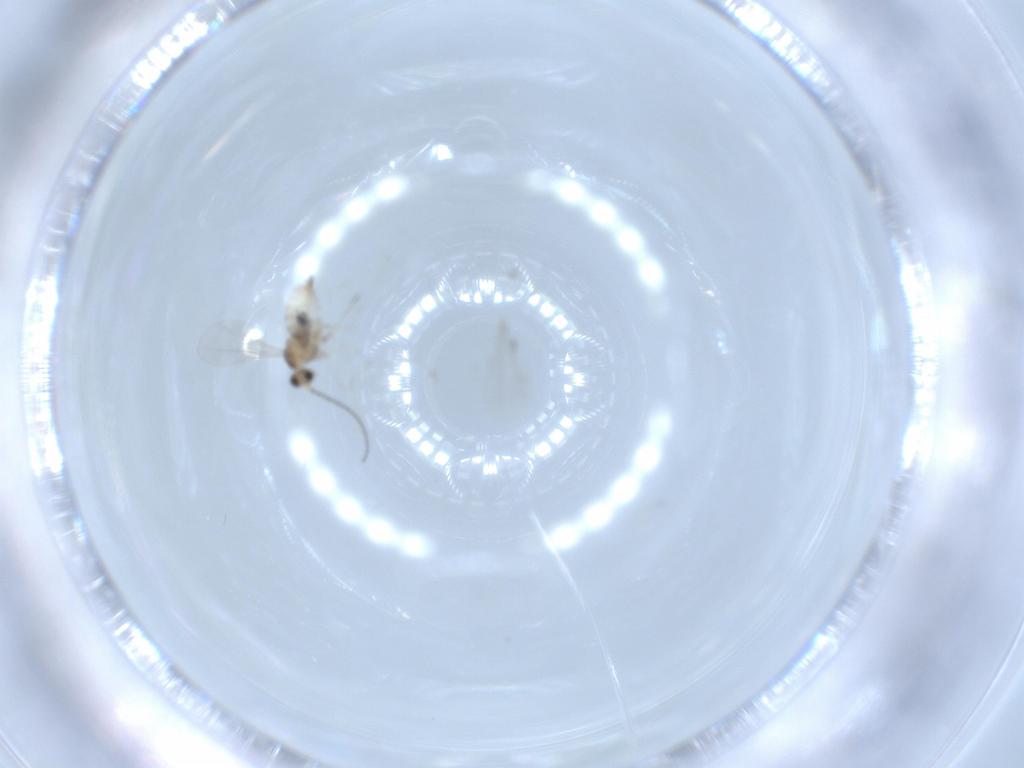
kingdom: Animalia
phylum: Arthropoda
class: Insecta
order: Diptera
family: Cecidomyiidae
